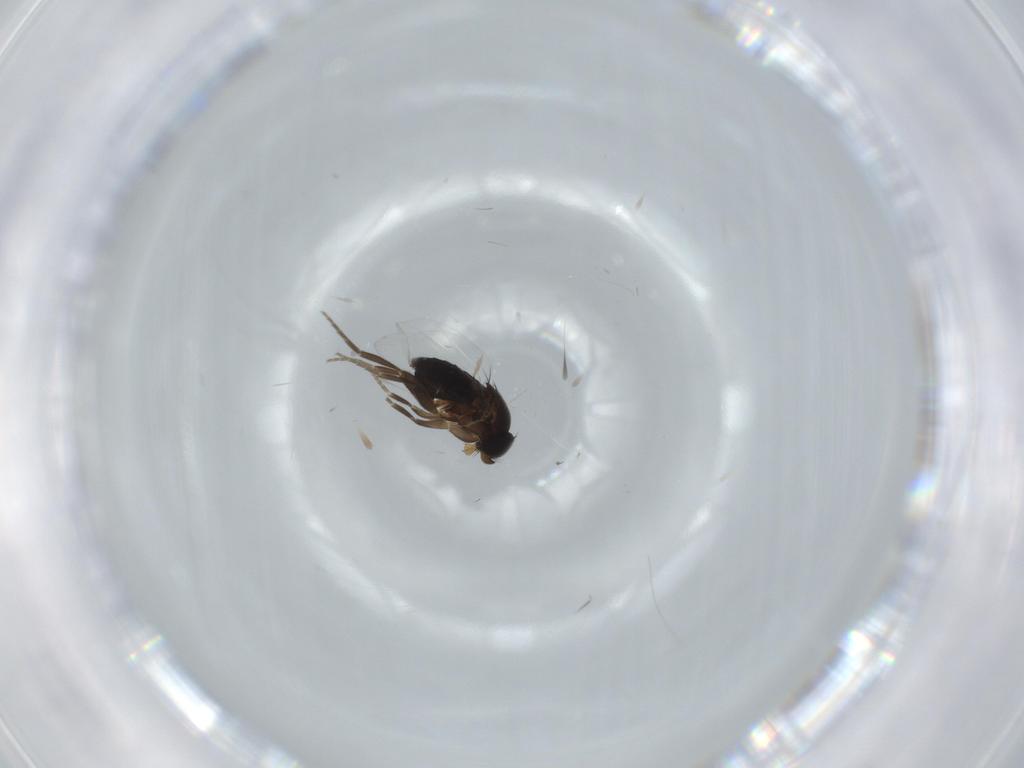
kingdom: Animalia
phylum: Arthropoda
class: Insecta
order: Diptera
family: Phoridae
